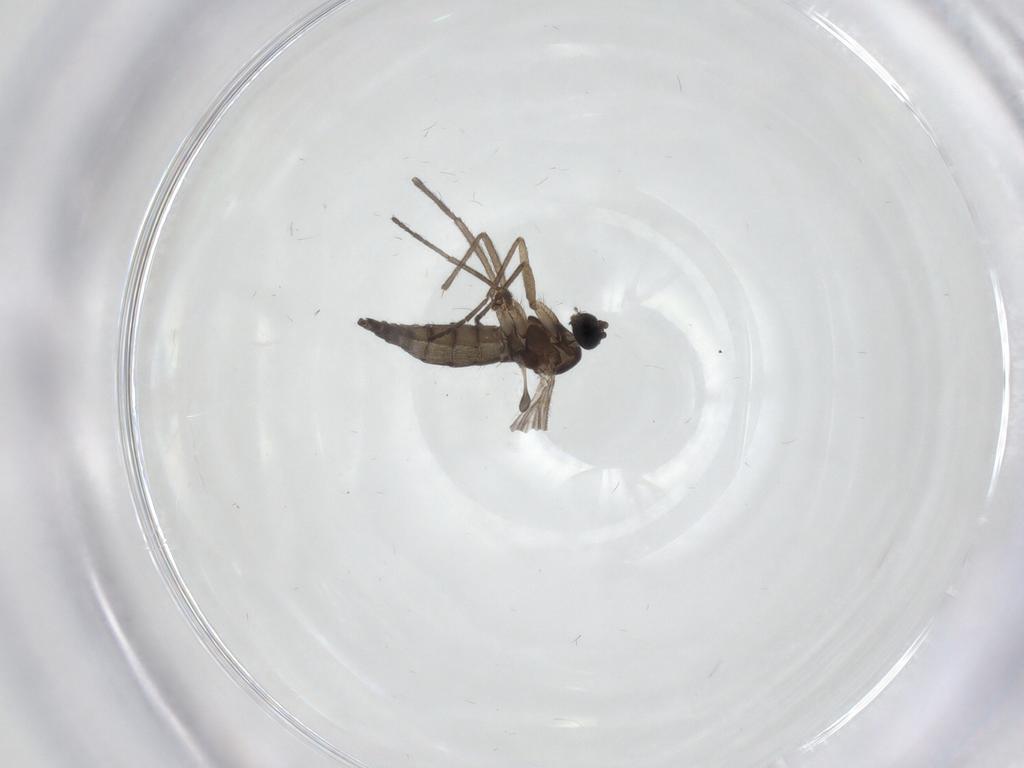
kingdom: Animalia
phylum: Arthropoda
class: Insecta
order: Diptera
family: Sciaridae
